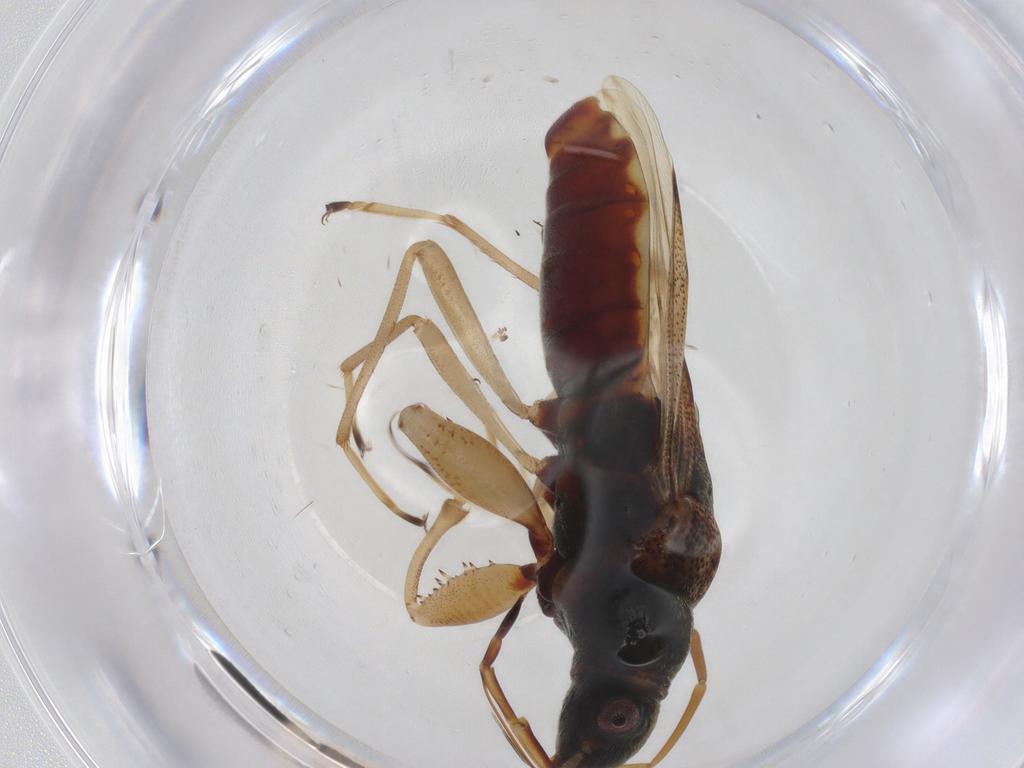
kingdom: Animalia
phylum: Arthropoda
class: Insecta
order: Hemiptera
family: Rhyparochromidae
